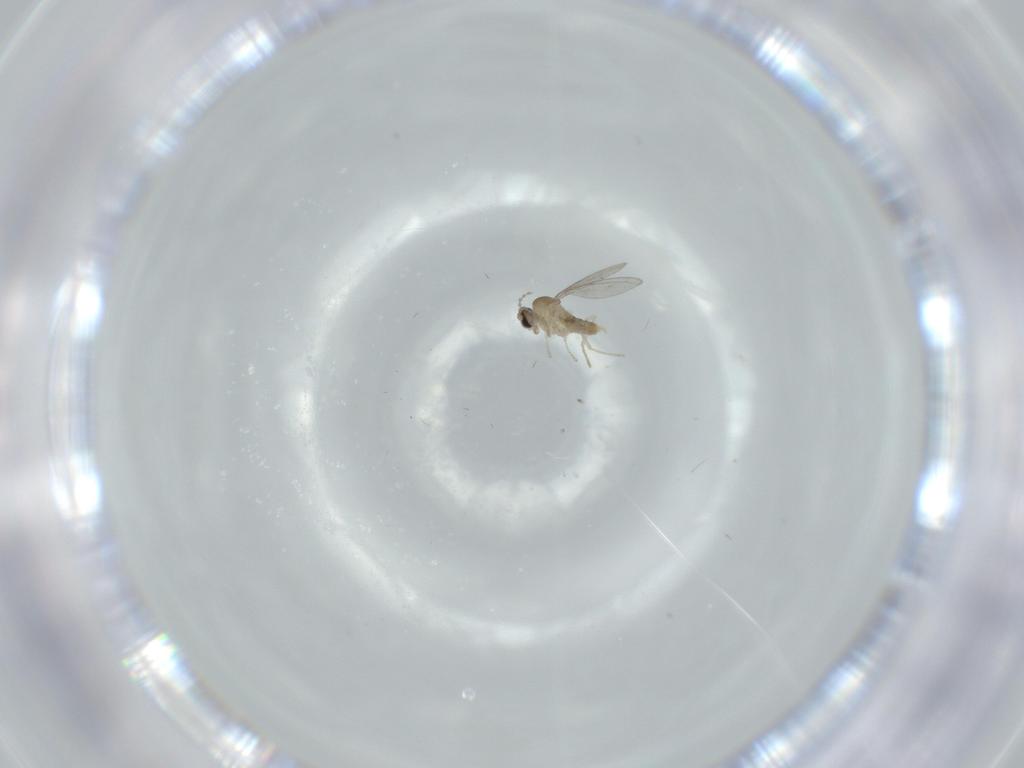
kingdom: Animalia
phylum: Arthropoda
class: Insecta
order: Diptera
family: Cecidomyiidae
